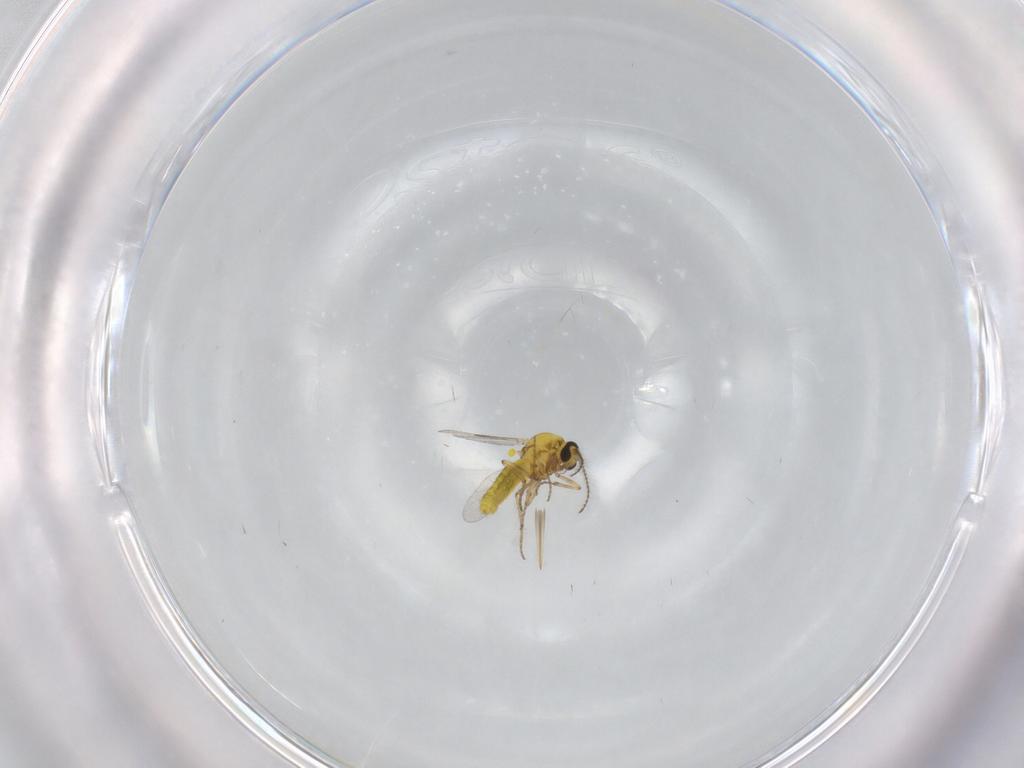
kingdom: Animalia
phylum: Arthropoda
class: Insecta
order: Diptera
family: Ceratopogonidae
